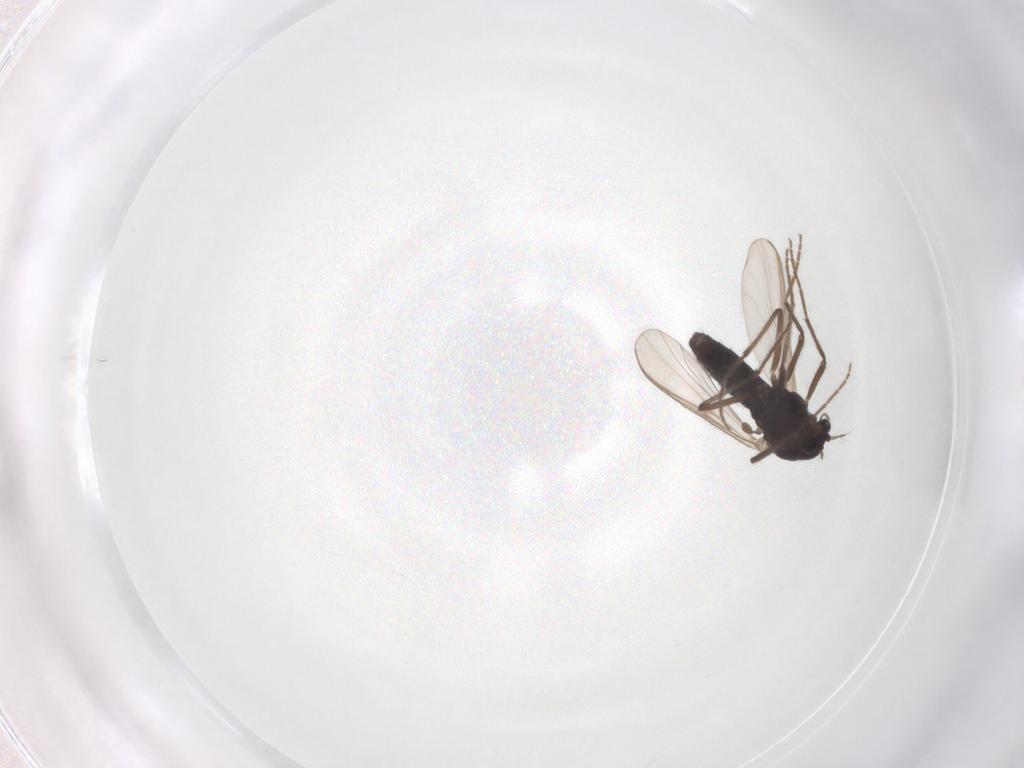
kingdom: Animalia
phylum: Arthropoda
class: Insecta
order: Diptera
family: Chironomidae
